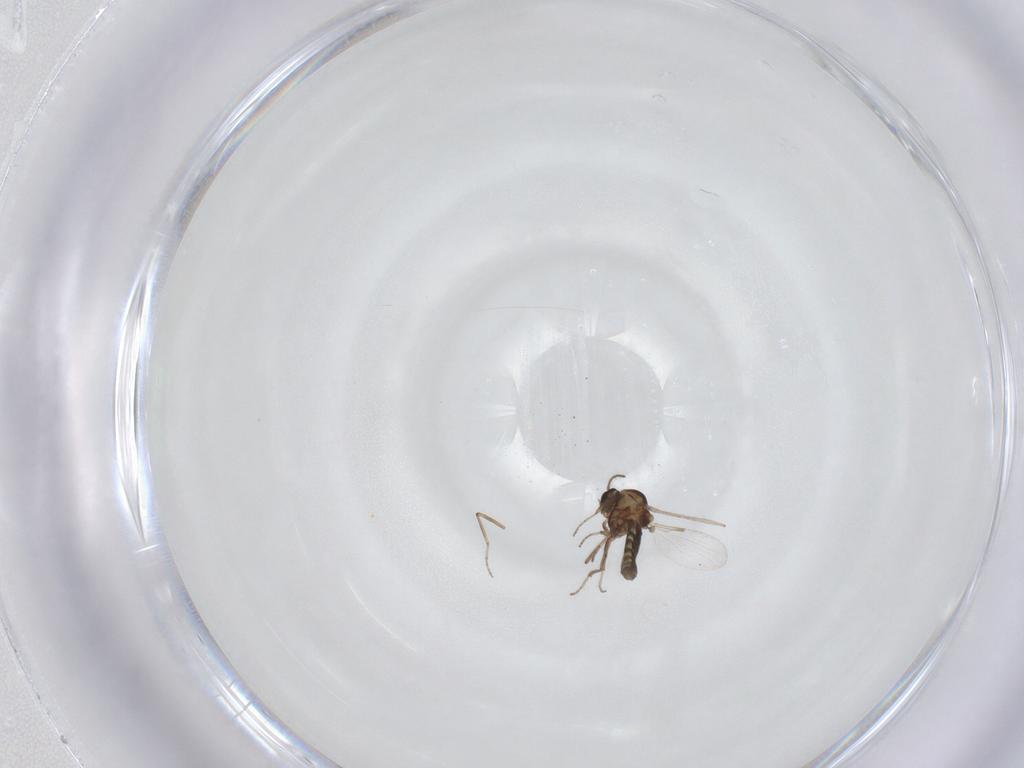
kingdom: Animalia
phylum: Arthropoda
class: Insecta
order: Diptera
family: Ceratopogonidae
